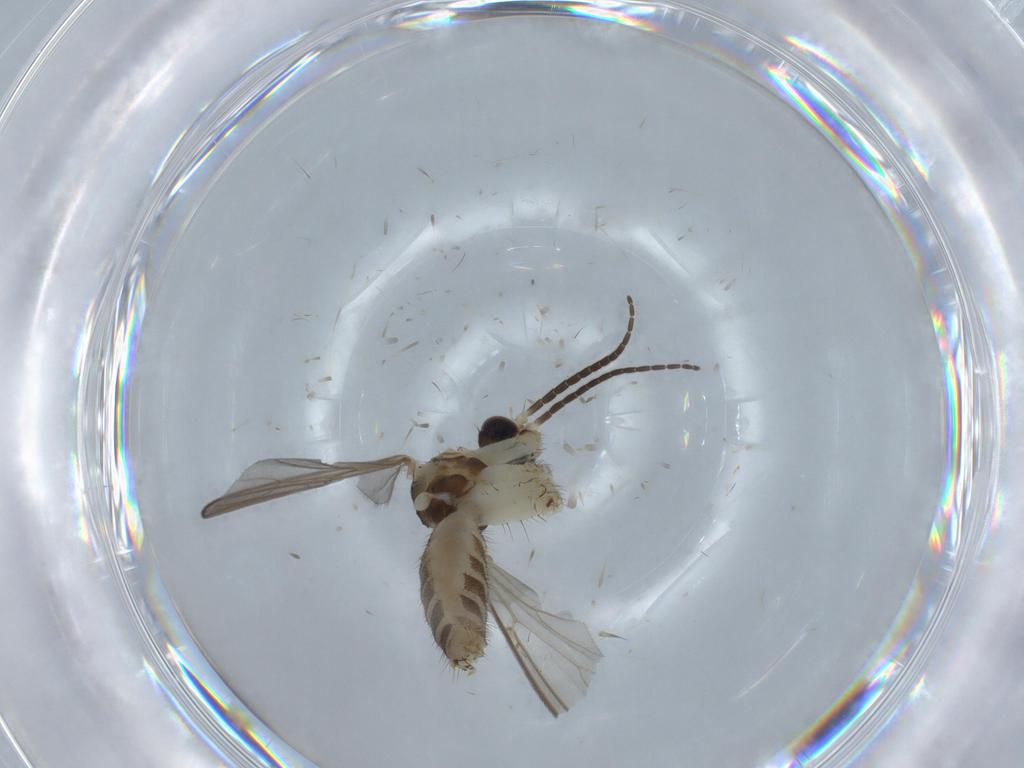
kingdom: Animalia
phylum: Arthropoda
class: Insecta
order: Diptera
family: Mycetophilidae
